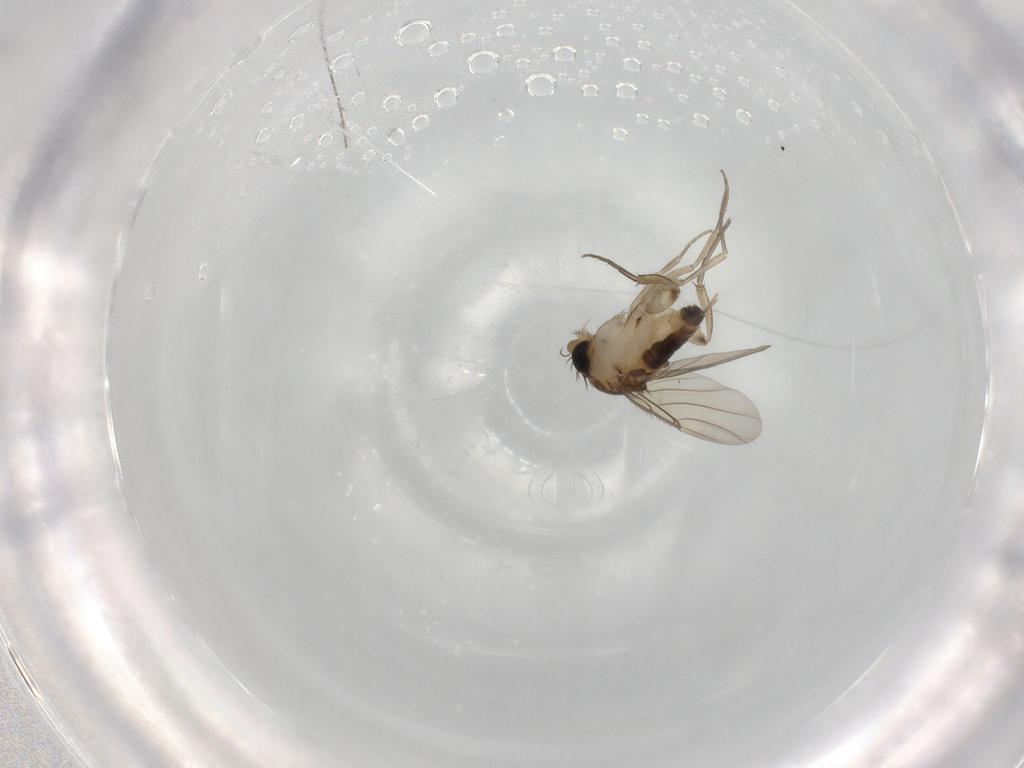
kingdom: Animalia
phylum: Arthropoda
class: Insecta
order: Diptera
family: Phoridae
